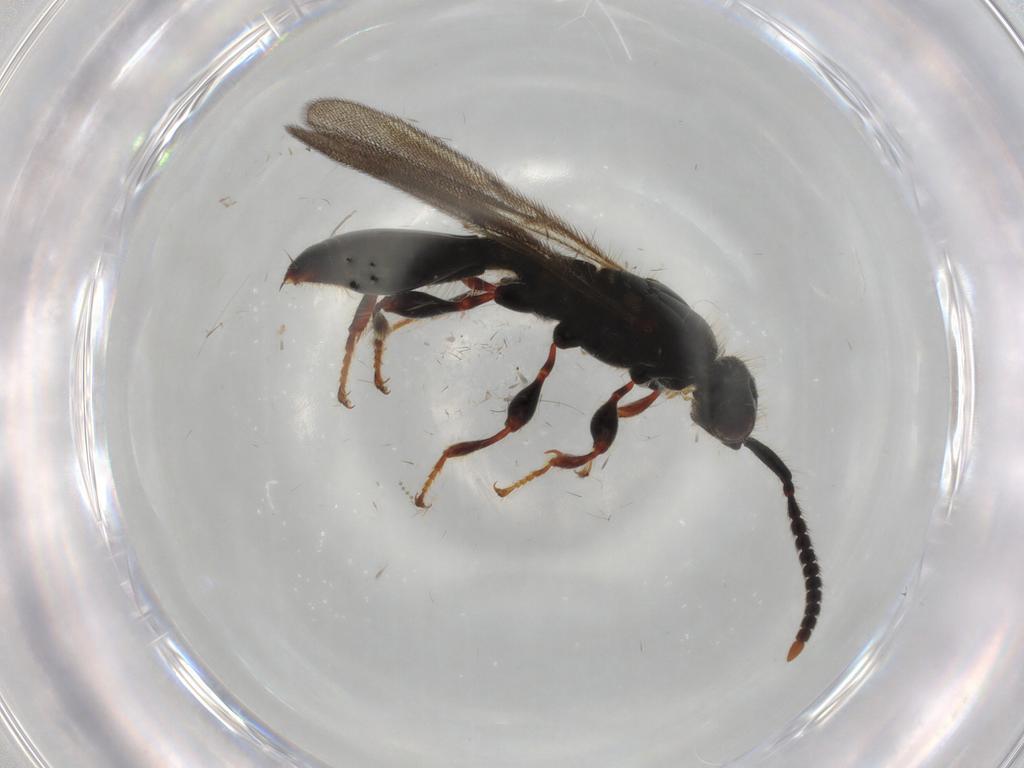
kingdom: Animalia
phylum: Arthropoda
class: Insecta
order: Hymenoptera
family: Diapriidae
